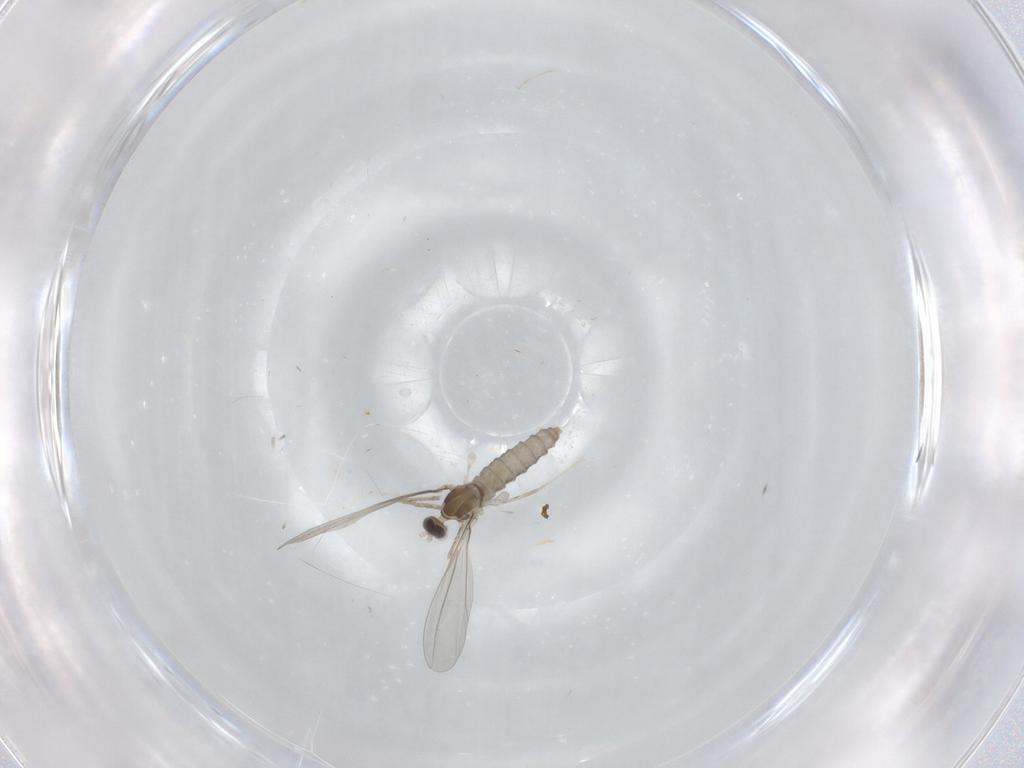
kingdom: Animalia
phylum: Arthropoda
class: Insecta
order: Diptera
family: Cecidomyiidae
